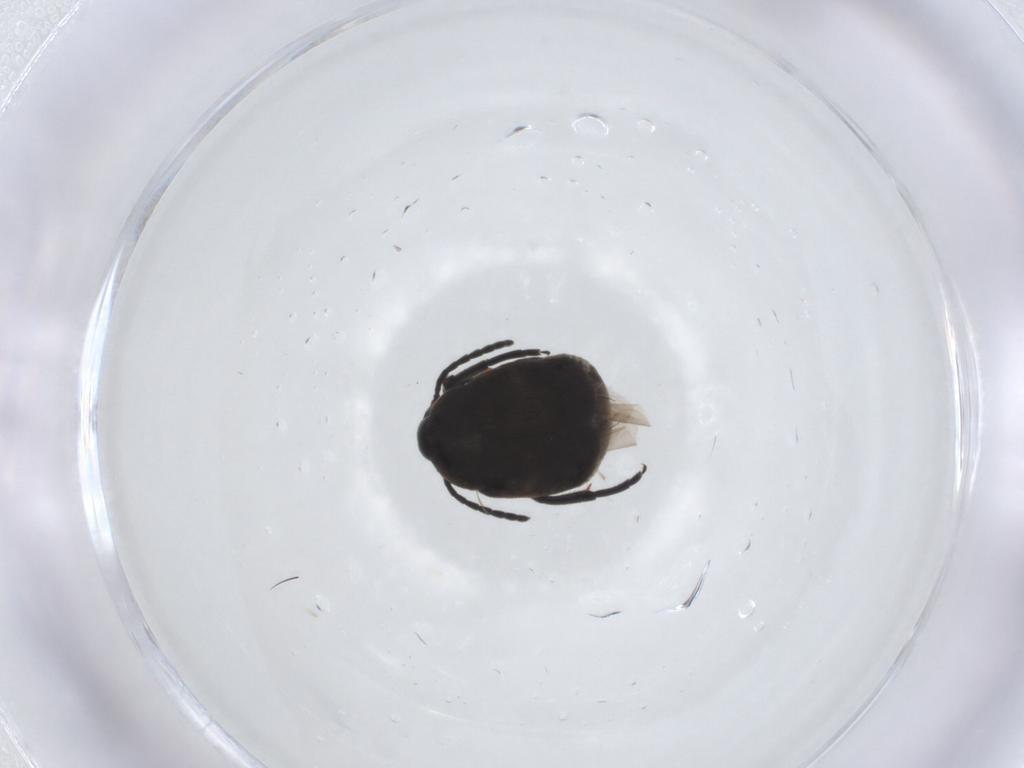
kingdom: Animalia
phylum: Arthropoda
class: Insecta
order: Coleoptera
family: Chrysomelidae
